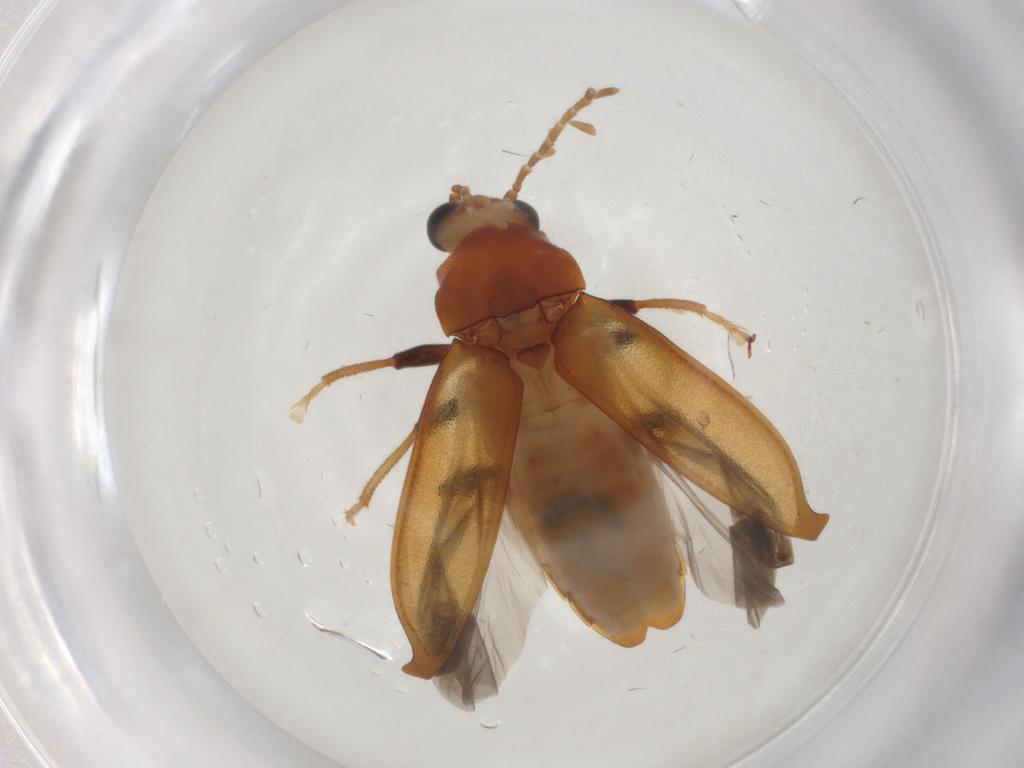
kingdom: Animalia
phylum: Arthropoda
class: Insecta
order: Coleoptera
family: Ptilodactylidae
